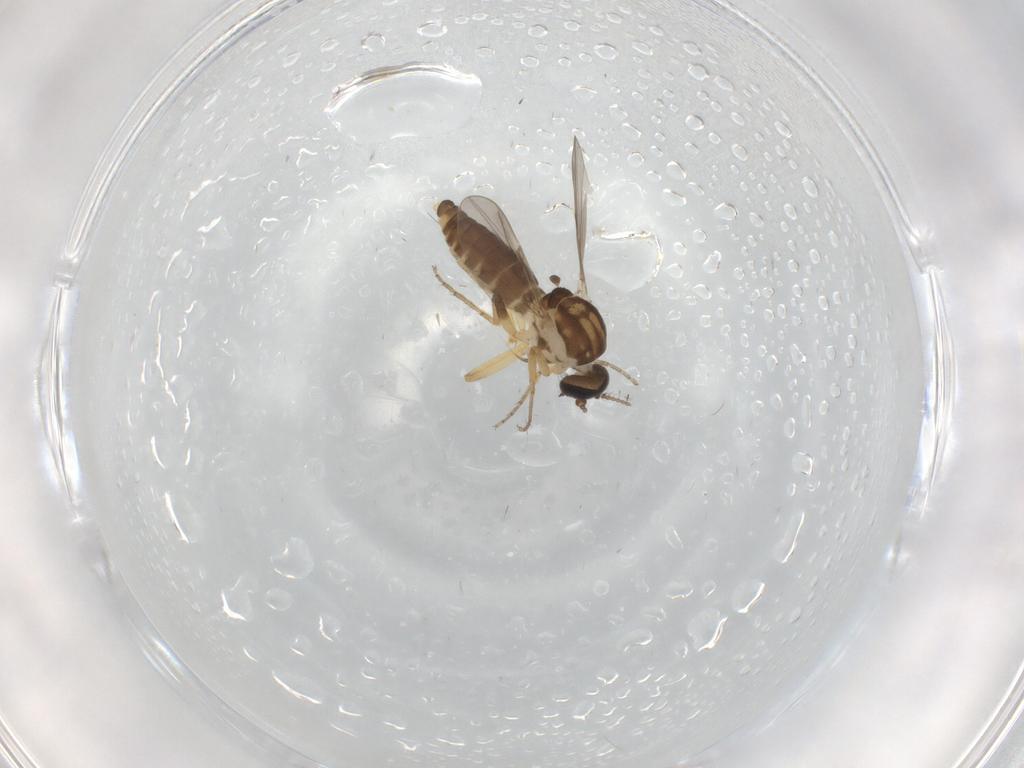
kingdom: Animalia
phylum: Arthropoda
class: Insecta
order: Diptera
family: Ceratopogonidae
